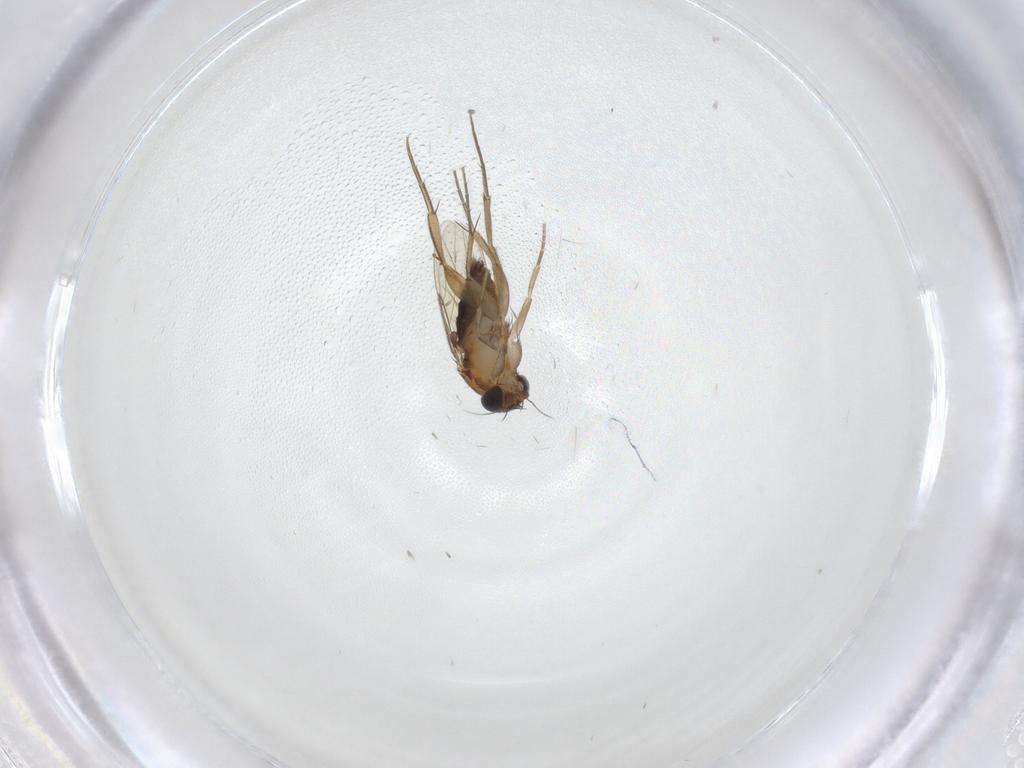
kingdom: Animalia
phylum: Arthropoda
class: Insecta
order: Diptera
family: Phoridae
